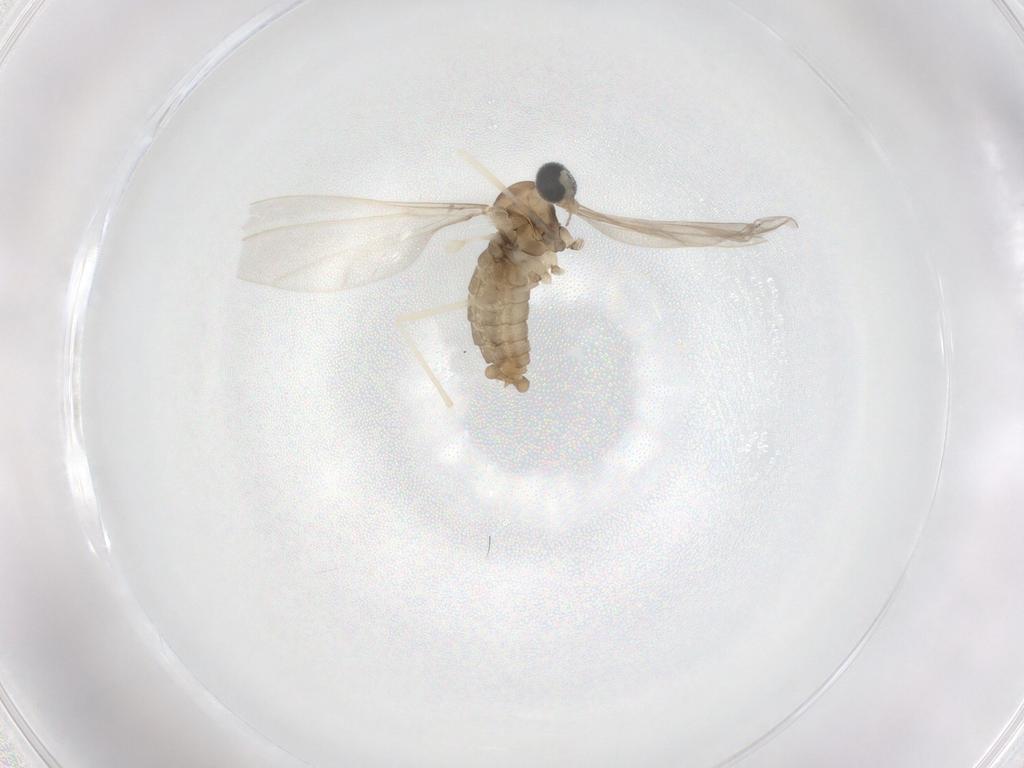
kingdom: Animalia
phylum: Arthropoda
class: Insecta
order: Diptera
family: Cecidomyiidae
